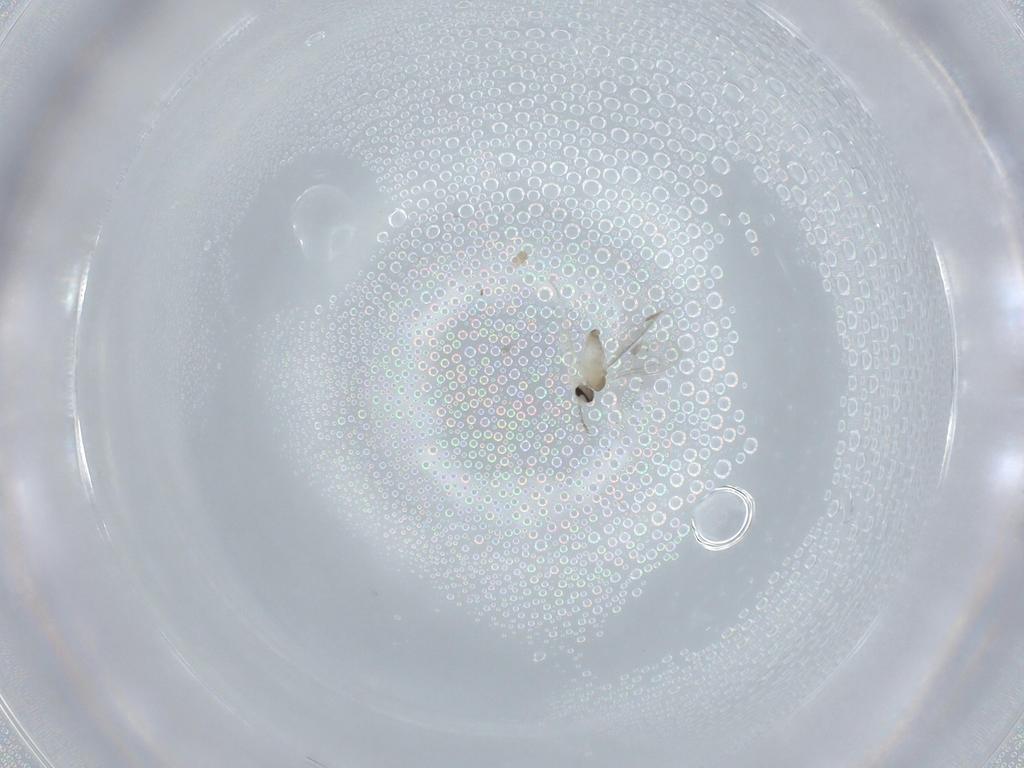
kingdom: Animalia
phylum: Arthropoda
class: Insecta
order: Diptera
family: Cecidomyiidae
